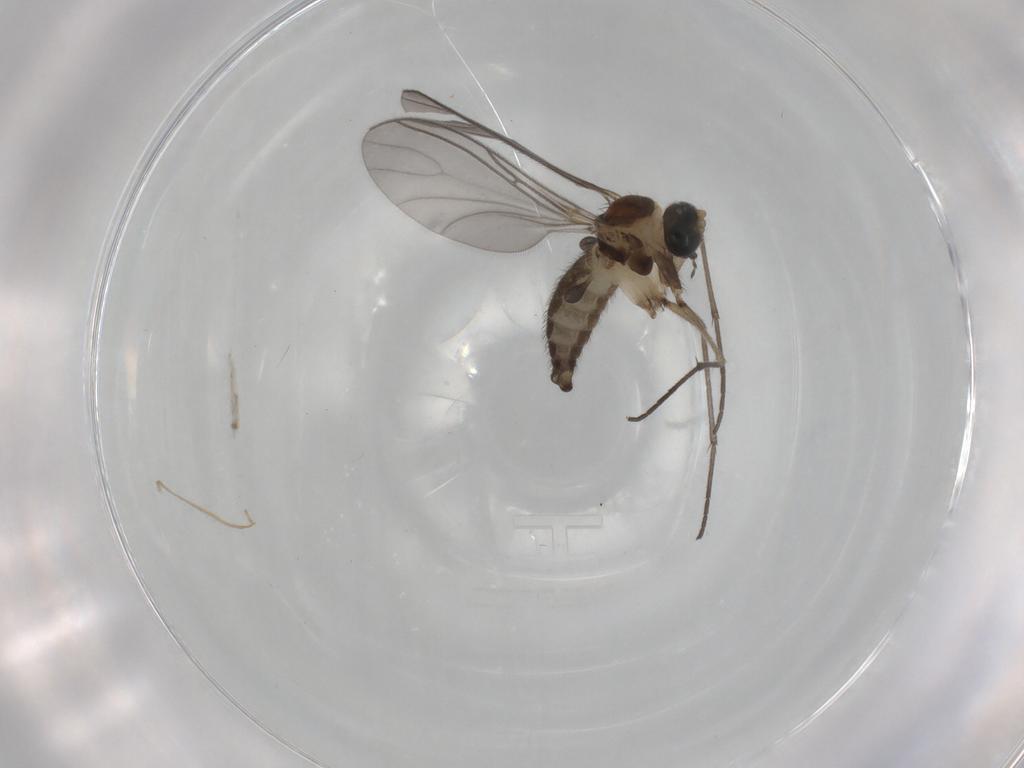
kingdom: Animalia
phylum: Arthropoda
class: Insecta
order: Diptera
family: Sciaridae
